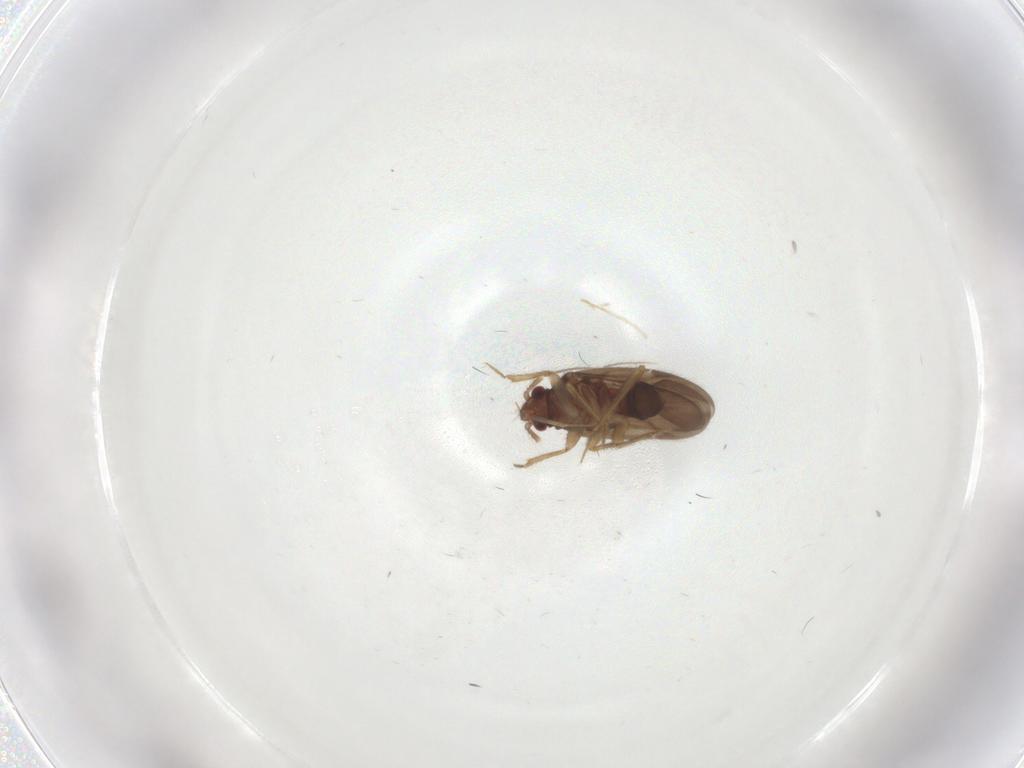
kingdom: Animalia
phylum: Arthropoda
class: Insecta
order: Hemiptera
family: Ceratocombidae
